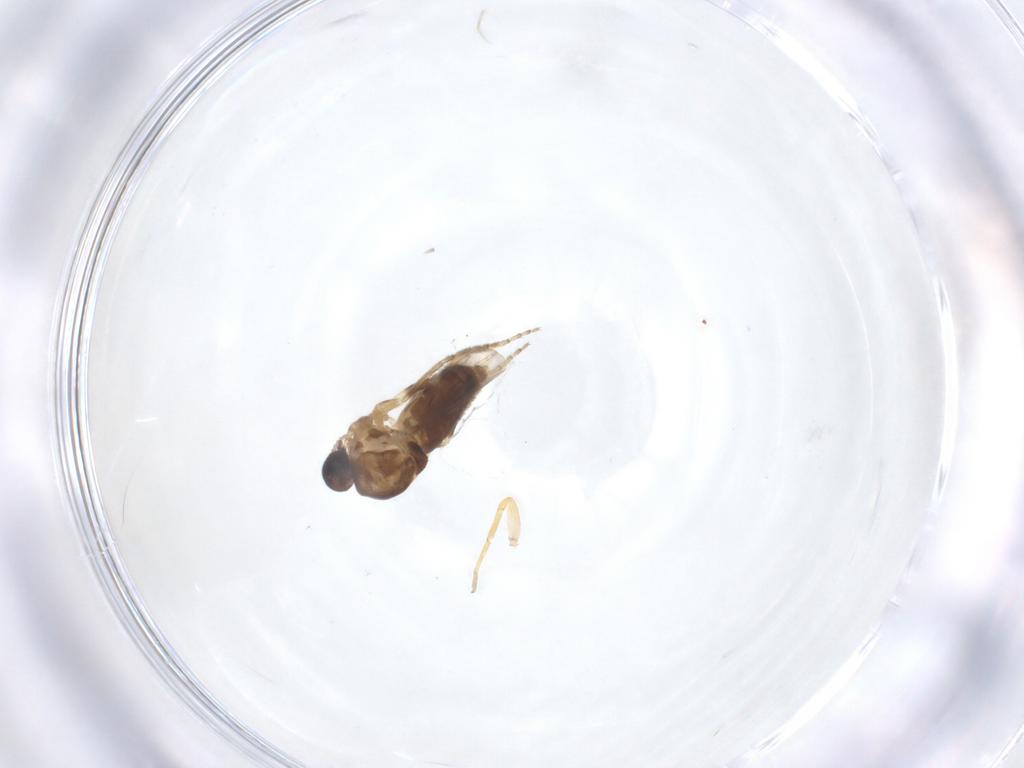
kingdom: Animalia
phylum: Arthropoda
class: Insecta
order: Diptera
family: Ceratopogonidae
